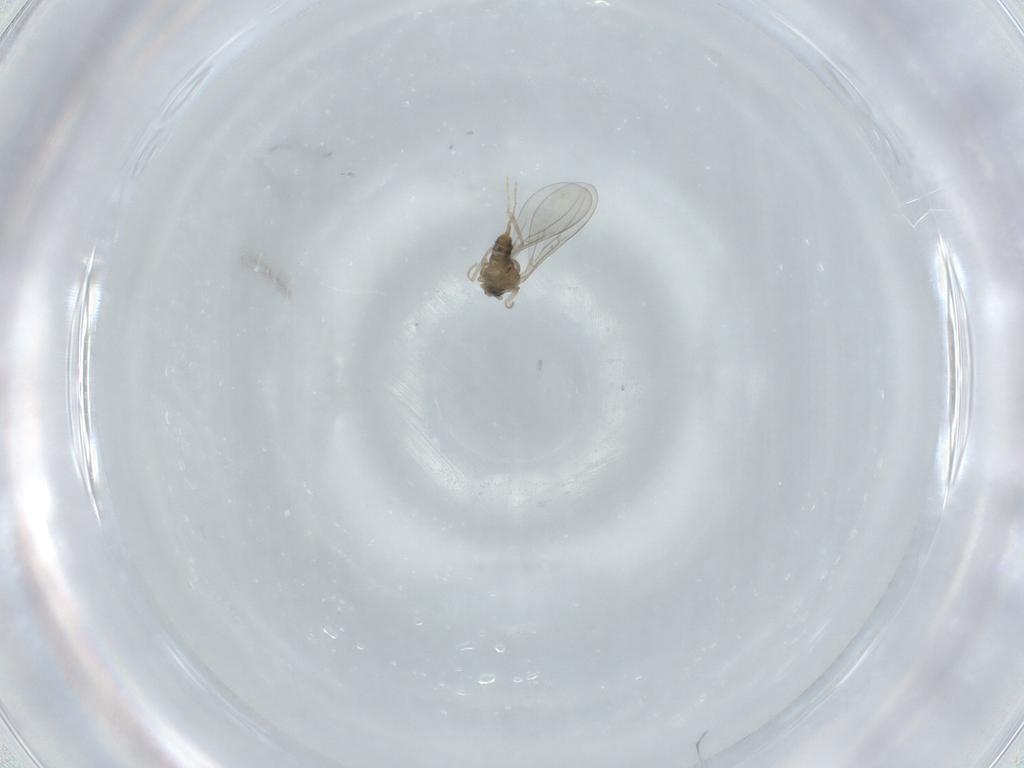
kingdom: Animalia
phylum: Arthropoda
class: Insecta
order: Diptera
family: Cecidomyiidae
